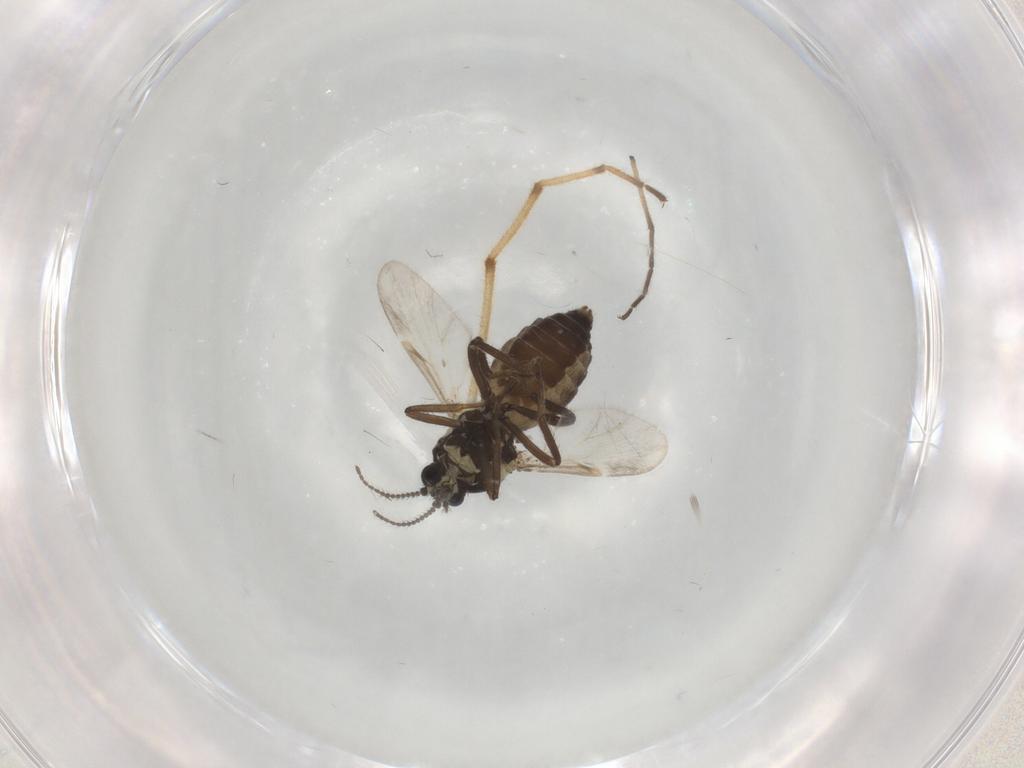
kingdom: Animalia
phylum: Arthropoda
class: Insecta
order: Diptera
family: Ceratopogonidae
